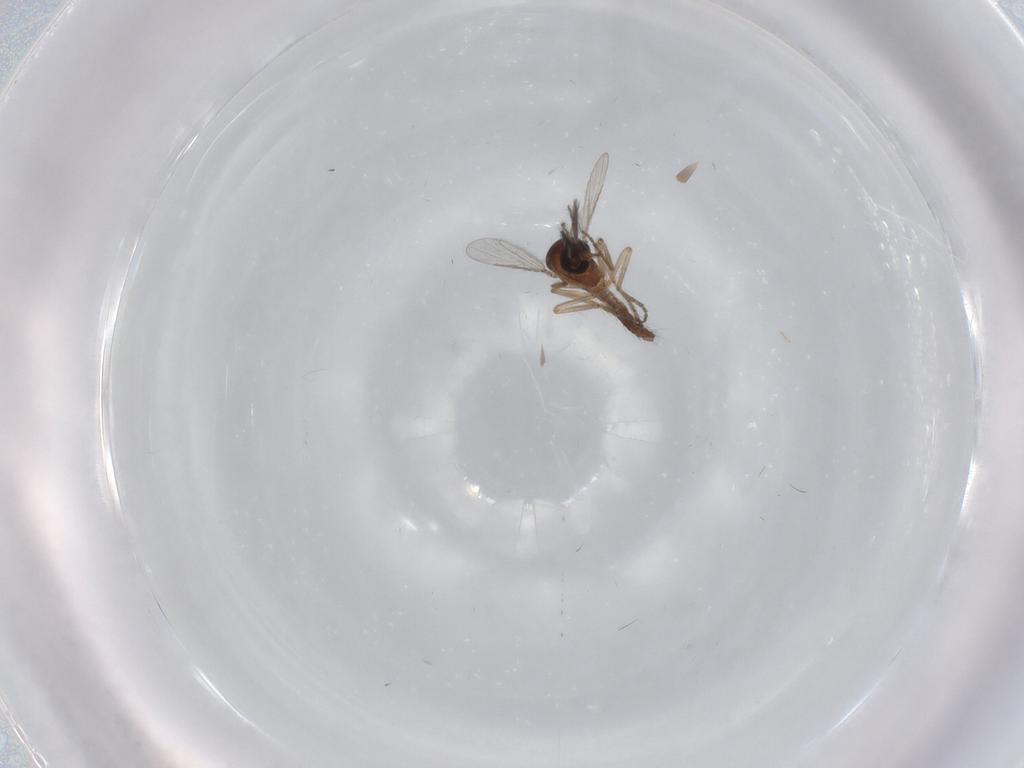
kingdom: Animalia
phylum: Arthropoda
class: Insecta
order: Diptera
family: Ceratopogonidae
